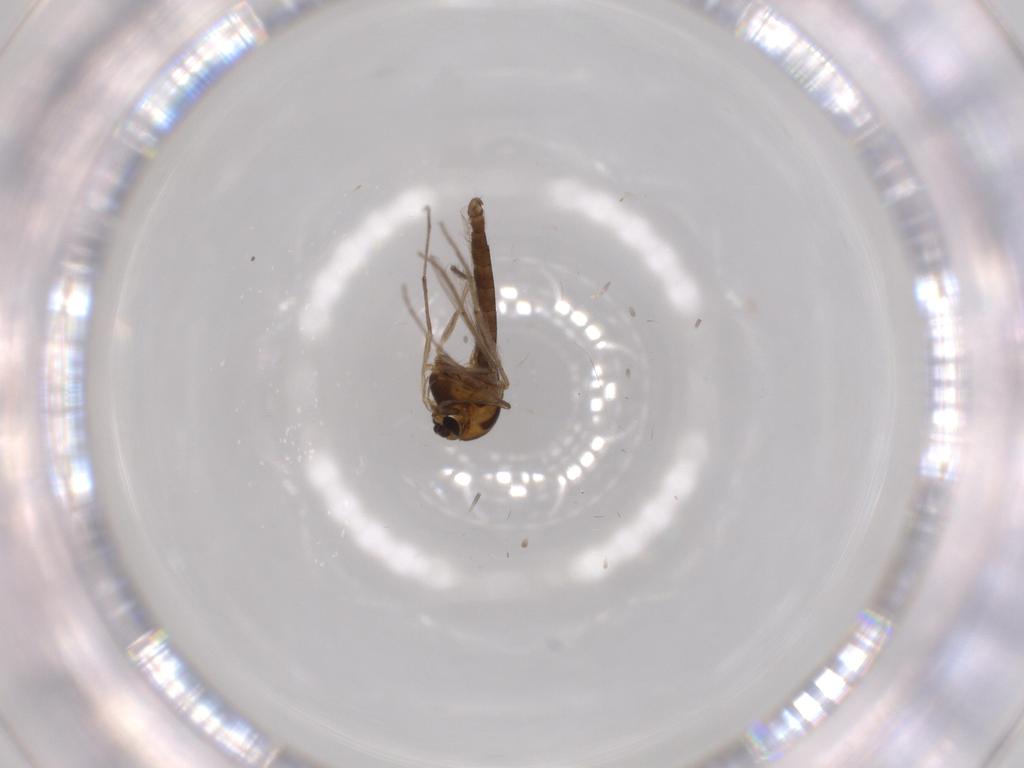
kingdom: Animalia
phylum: Arthropoda
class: Insecta
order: Diptera
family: Chironomidae
